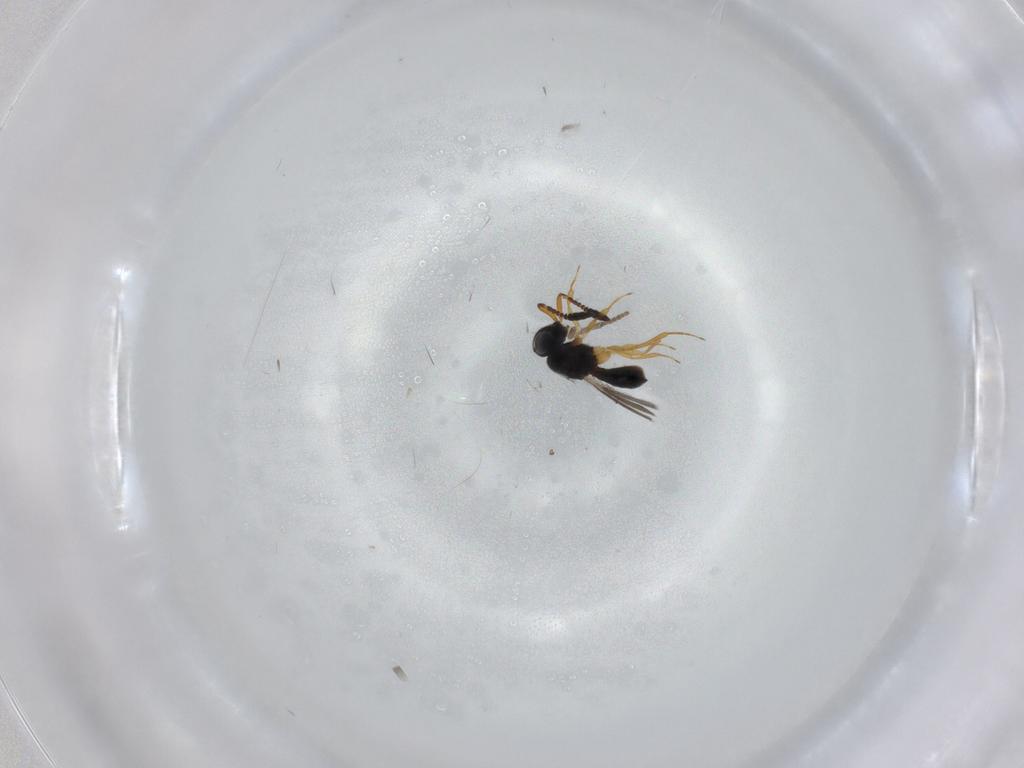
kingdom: Animalia
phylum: Arthropoda
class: Insecta
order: Hymenoptera
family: Scelionidae
